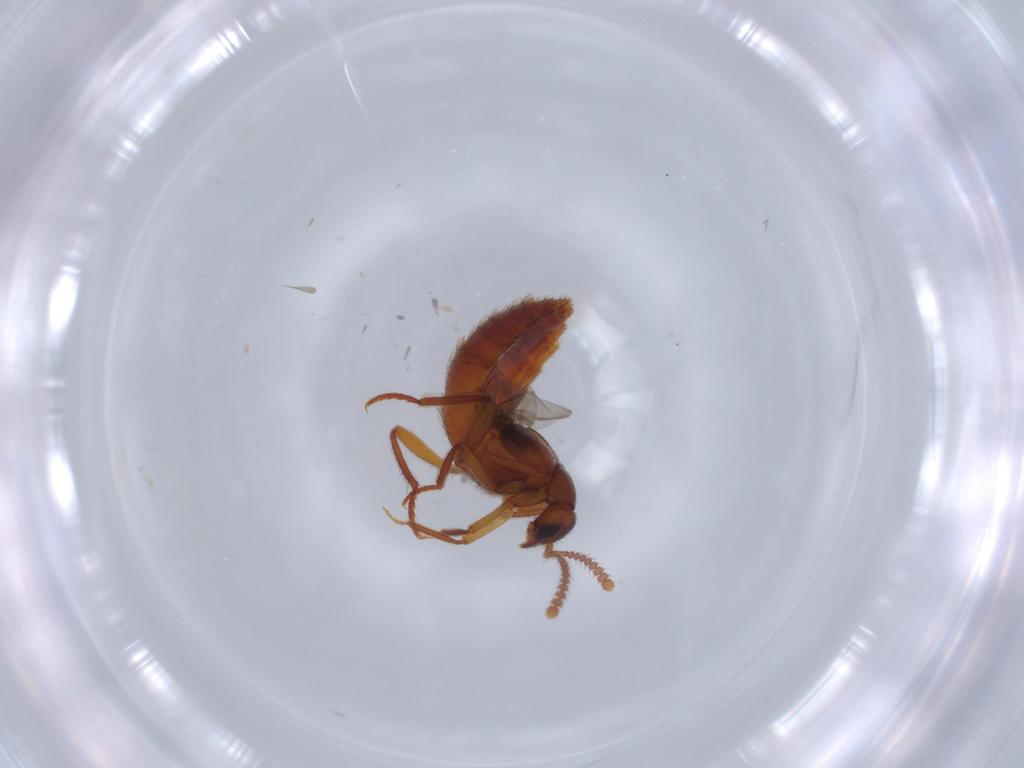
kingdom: Animalia
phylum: Arthropoda
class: Insecta
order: Coleoptera
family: Staphylinidae
